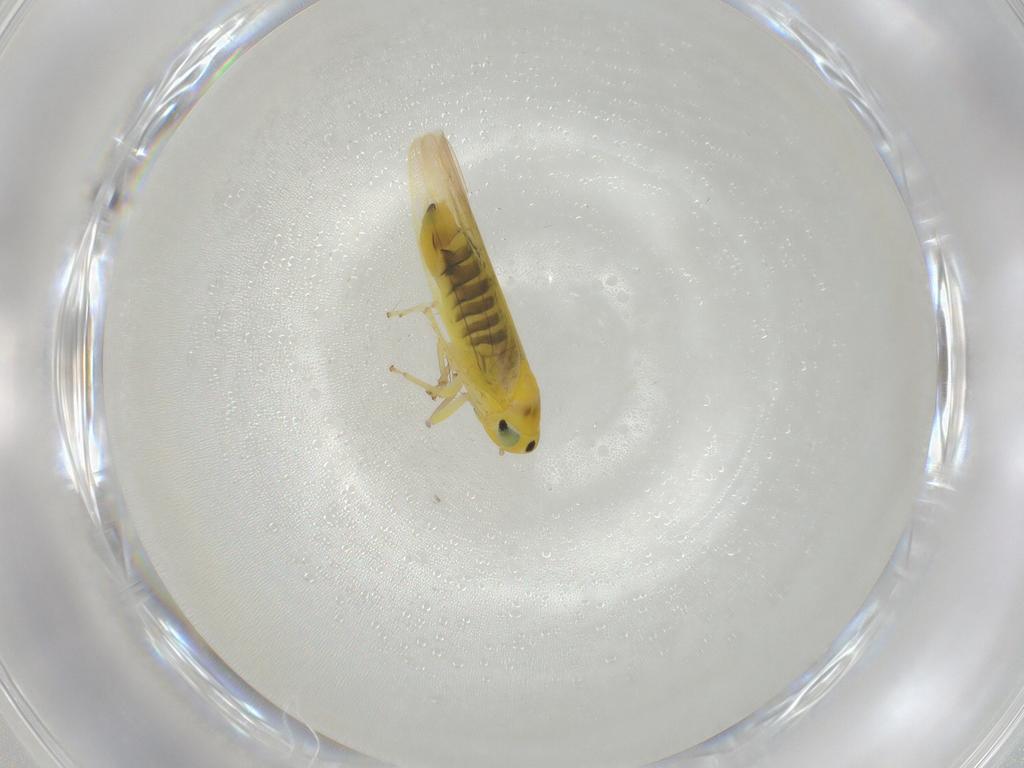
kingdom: Animalia
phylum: Arthropoda
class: Insecta
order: Hemiptera
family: Cicadellidae
